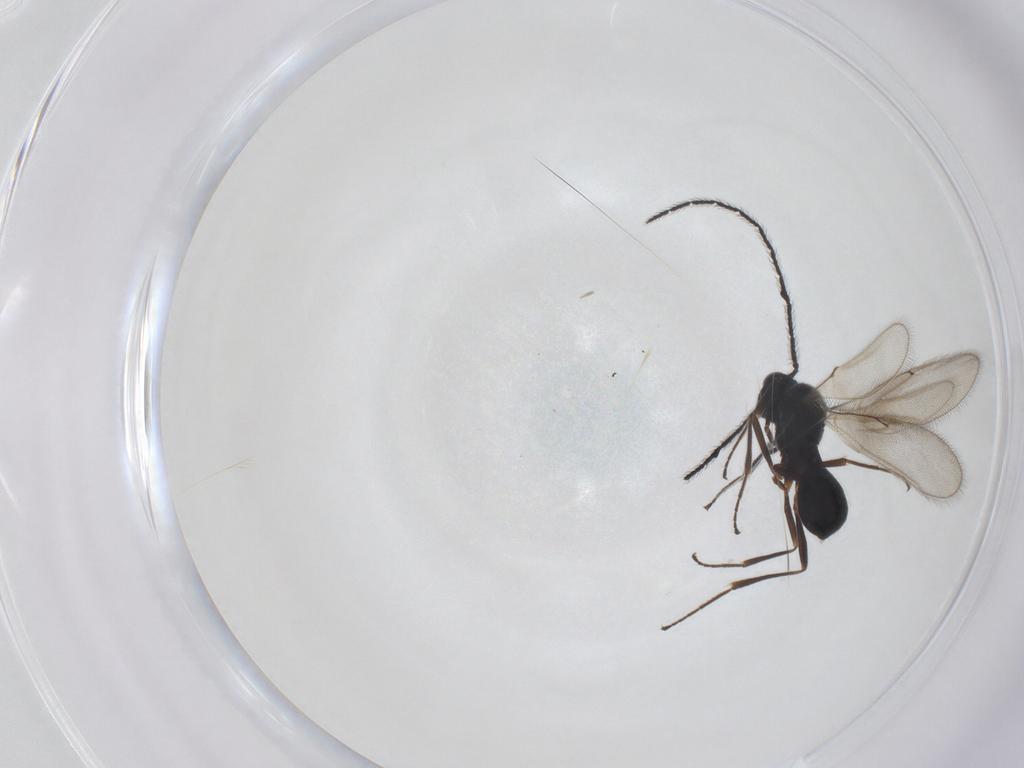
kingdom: Animalia
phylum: Arthropoda
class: Insecta
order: Hymenoptera
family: Scelionidae
